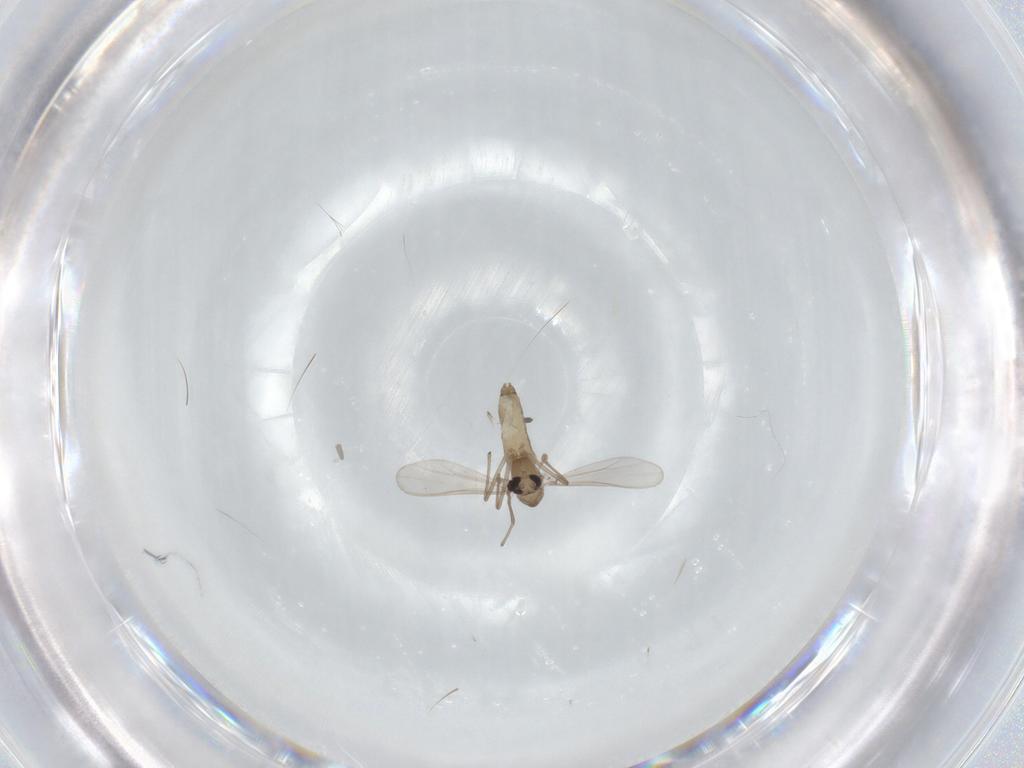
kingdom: Animalia
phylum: Arthropoda
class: Insecta
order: Diptera
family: Chironomidae
